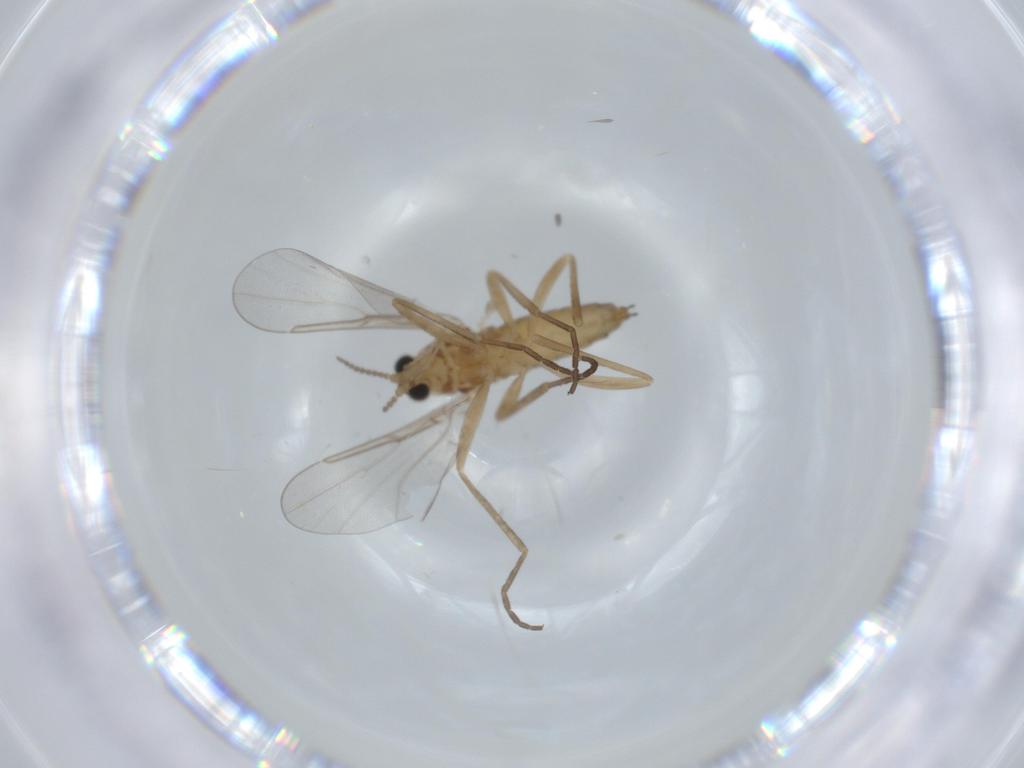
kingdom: Animalia
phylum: Arthropoda
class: Insecta
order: Diptera
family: Cecidomyiidae
